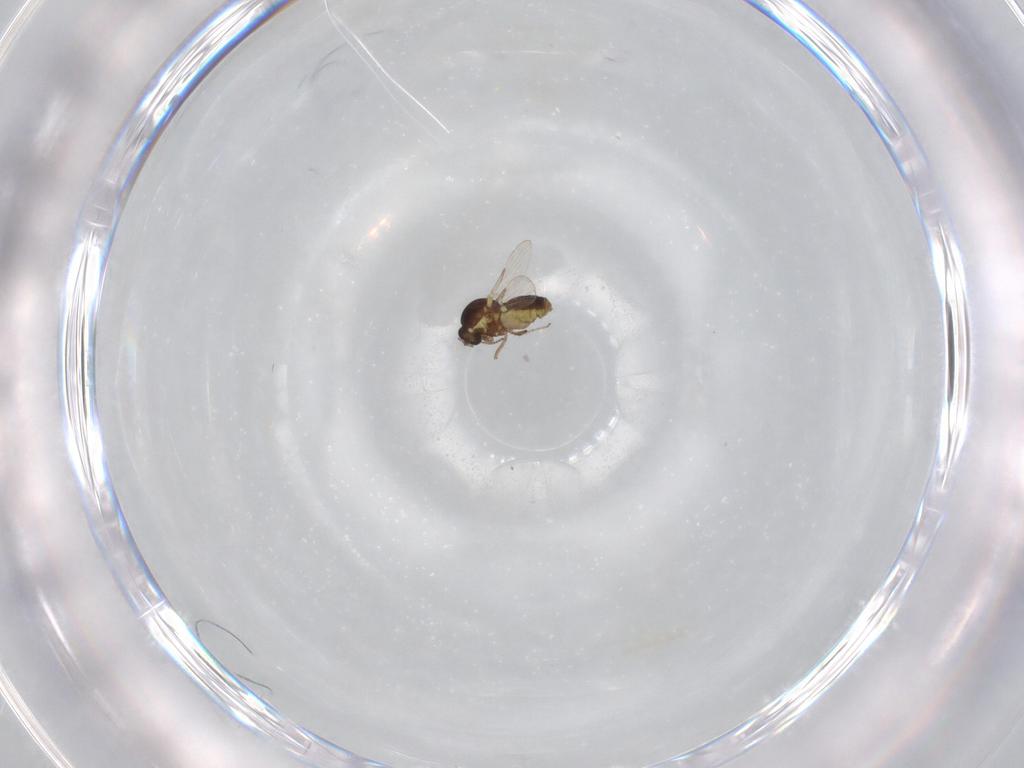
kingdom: Animalia
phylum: Arthropoda
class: Insecta
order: Diptera
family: Ceratopogonidae
